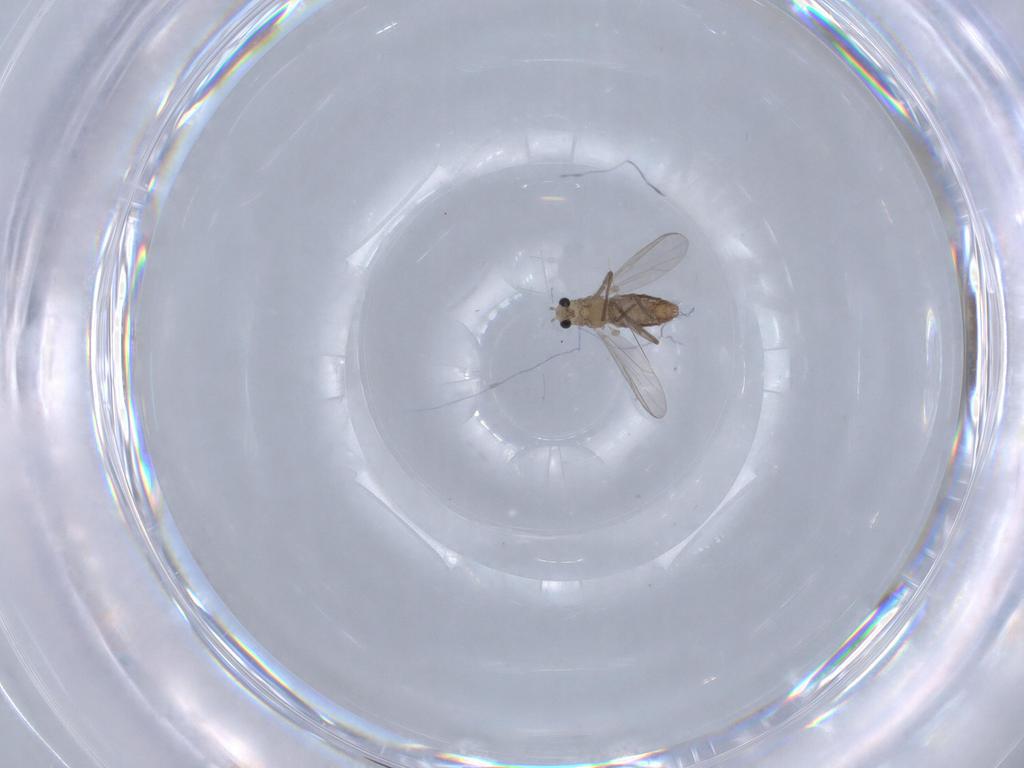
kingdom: Animalia
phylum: Arthropoda
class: Insecta
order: Diptera
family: Chironomidae
